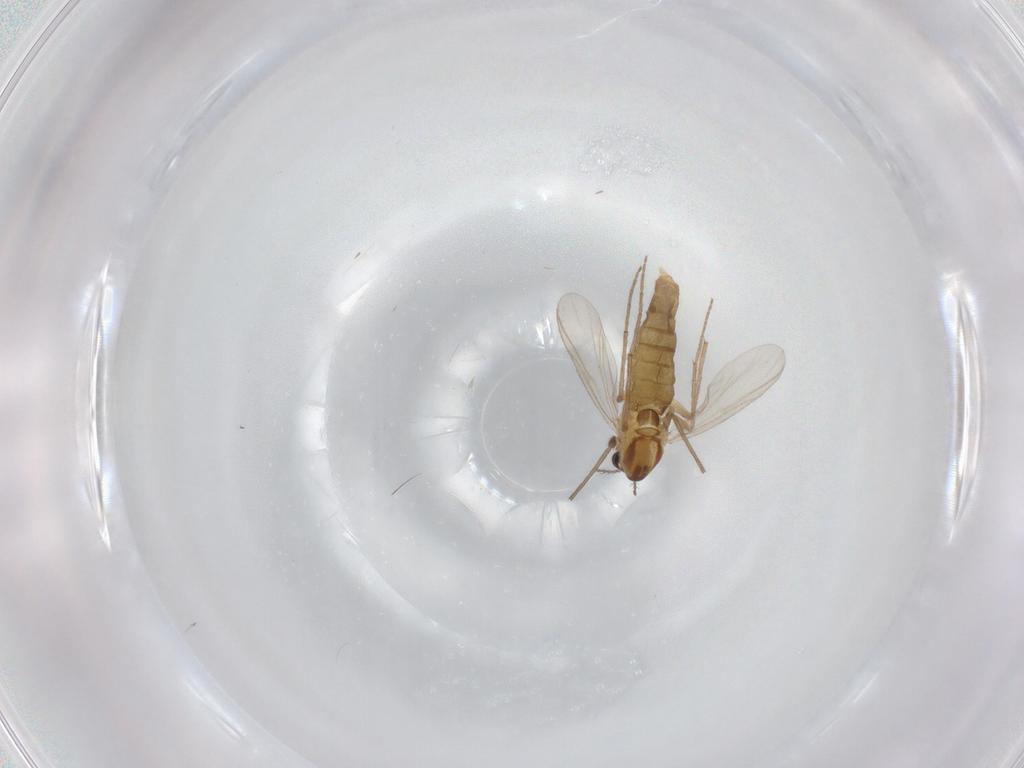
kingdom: Animalia
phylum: Arthropoda
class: Insecta
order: Diptera
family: Chironomidae
